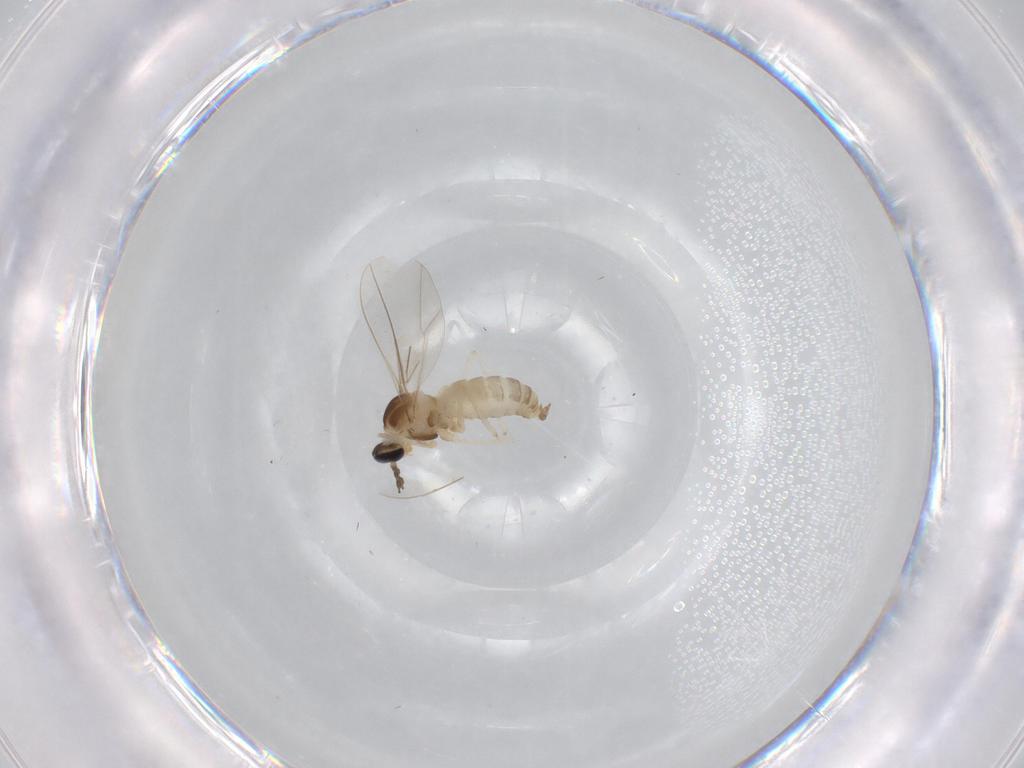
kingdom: Animalia
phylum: Arthropoda
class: Insecta
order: Diptera
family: Cecidomyiidae
